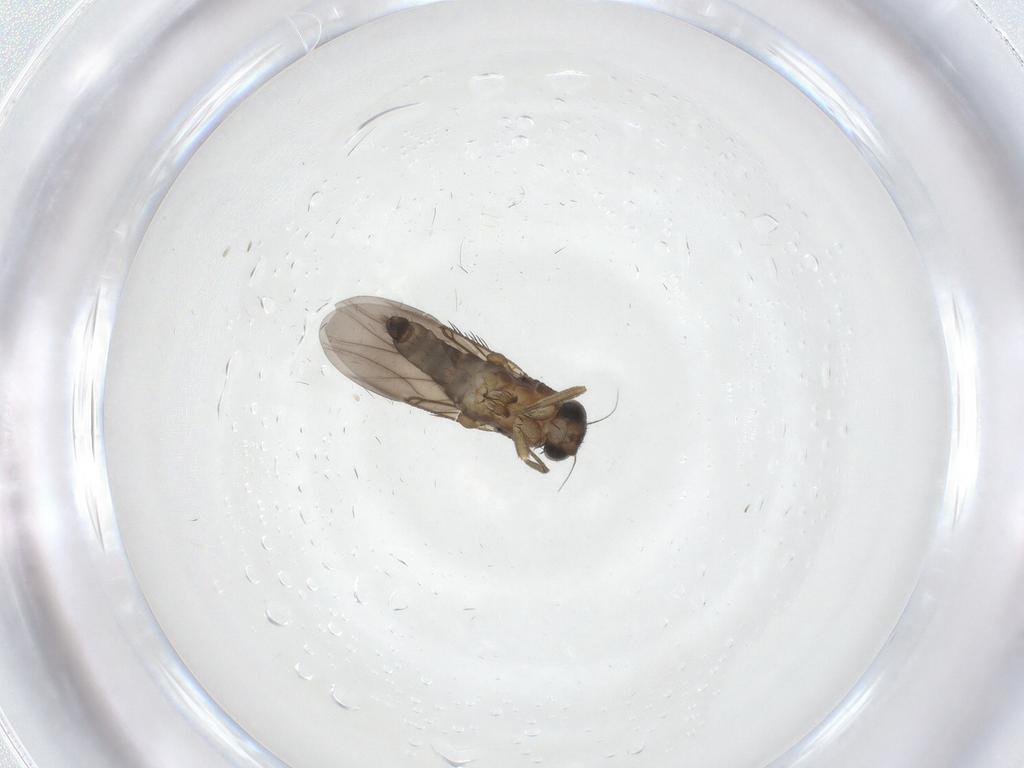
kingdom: Animalia
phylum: Arthropoda
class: Insecta
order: Diptera
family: Phoridae
